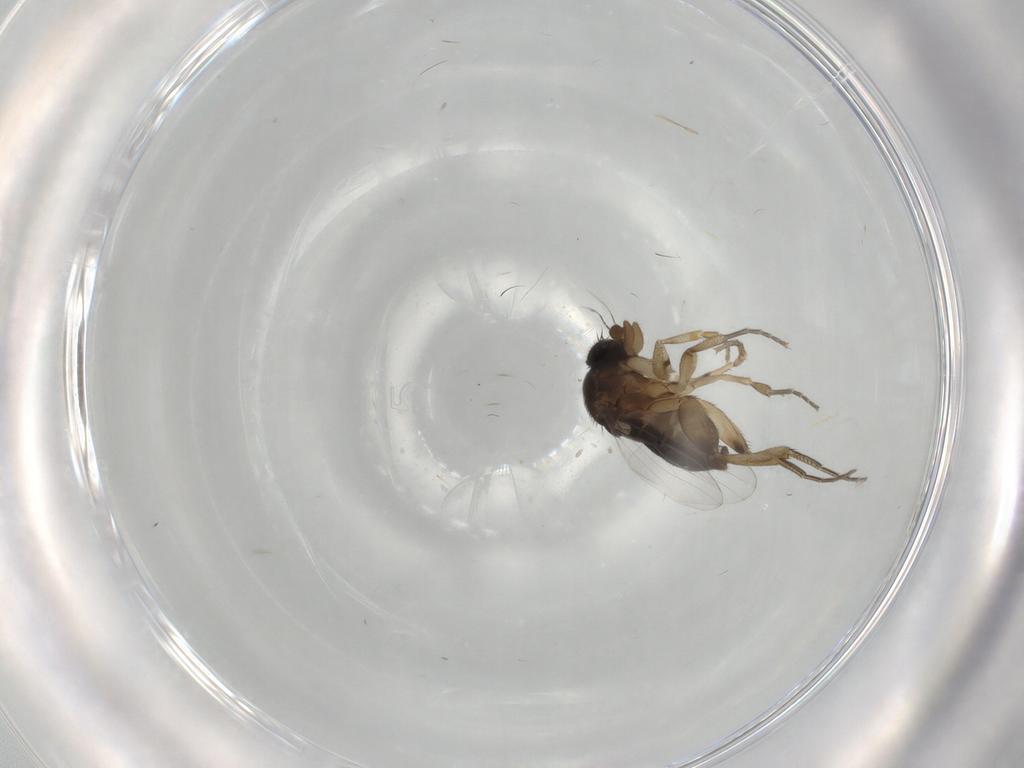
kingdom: Animalia
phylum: Arthropoda
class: Insecta
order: Diptera
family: Phoridae
